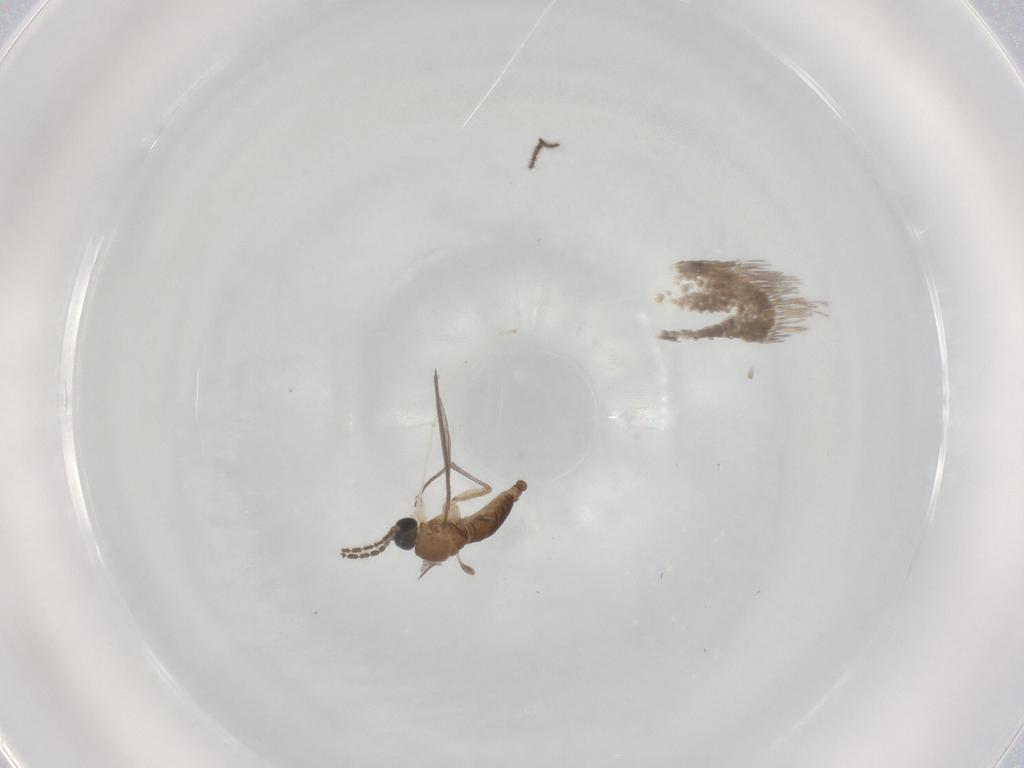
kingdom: Animalia
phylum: Arthropoda
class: Insecta
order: Diptera
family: Sciaridae
